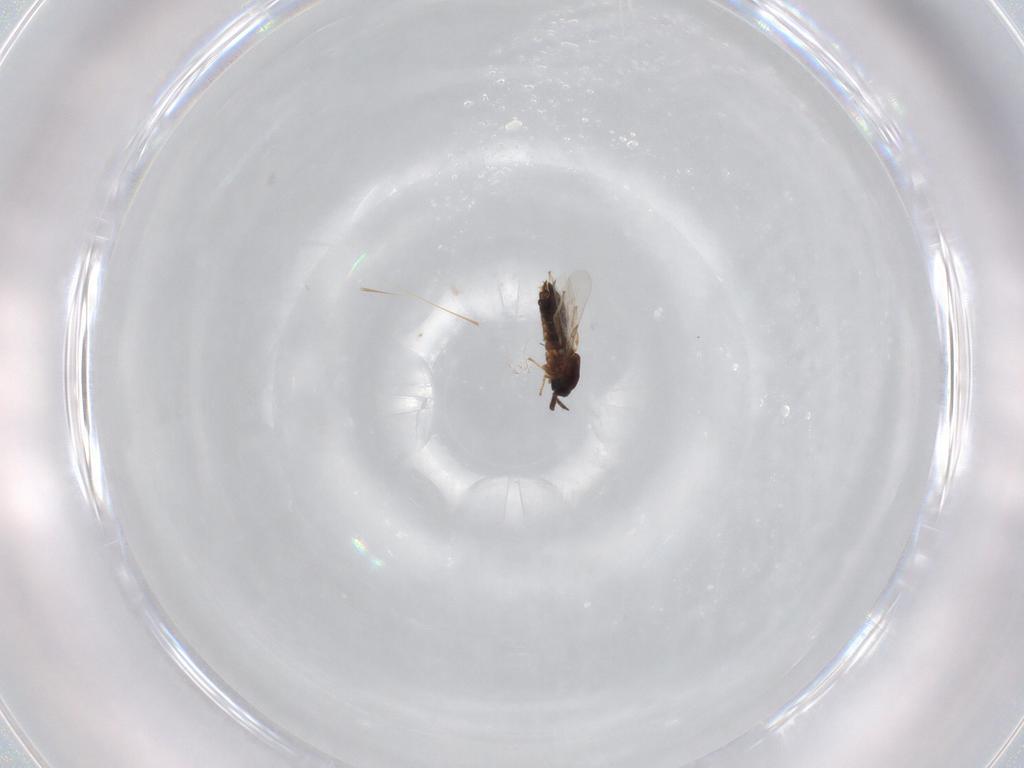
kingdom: Animalia
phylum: Arthropoda
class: Insecta
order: Diptera
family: Scatopsidae
